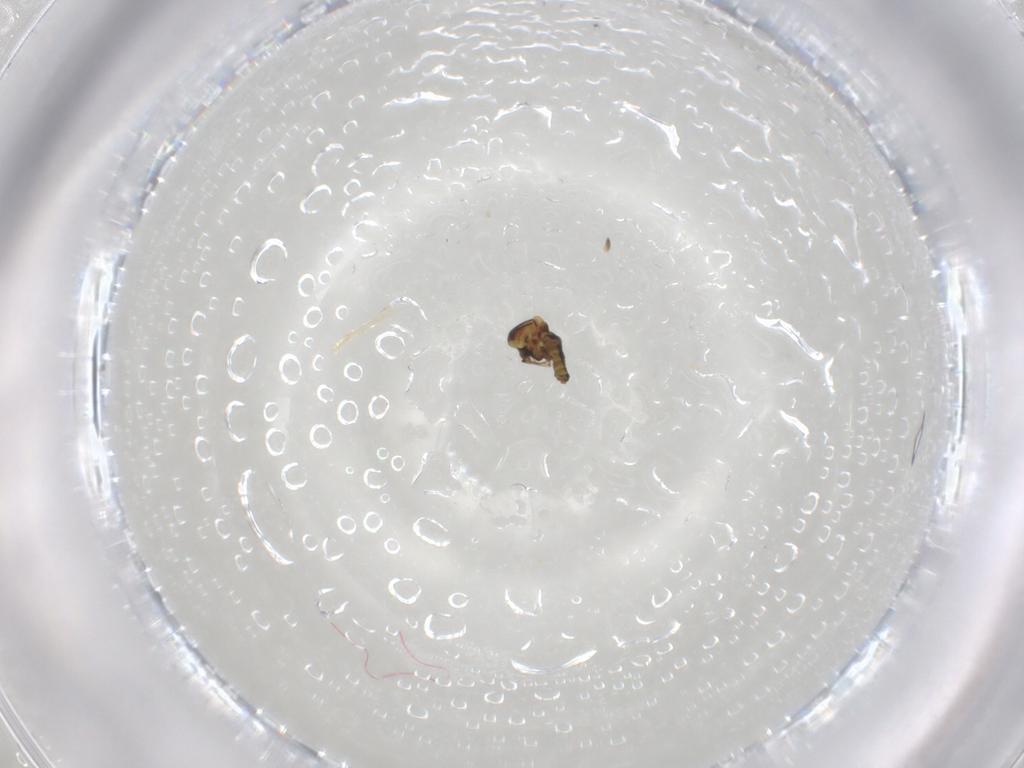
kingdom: Animalia
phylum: Arthropoda
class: Insecta
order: Diptera
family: Ceratopogonidae
